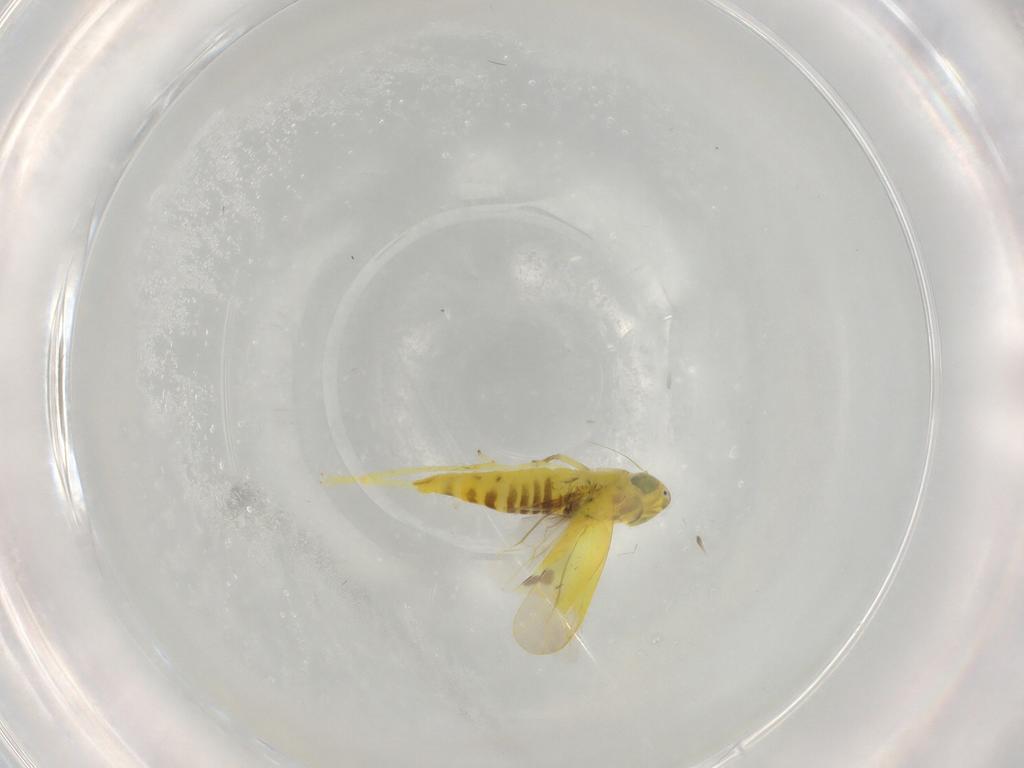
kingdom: Animalia
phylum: Arthropoda
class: Insecta
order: Hemiptera
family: Cicadellidae
